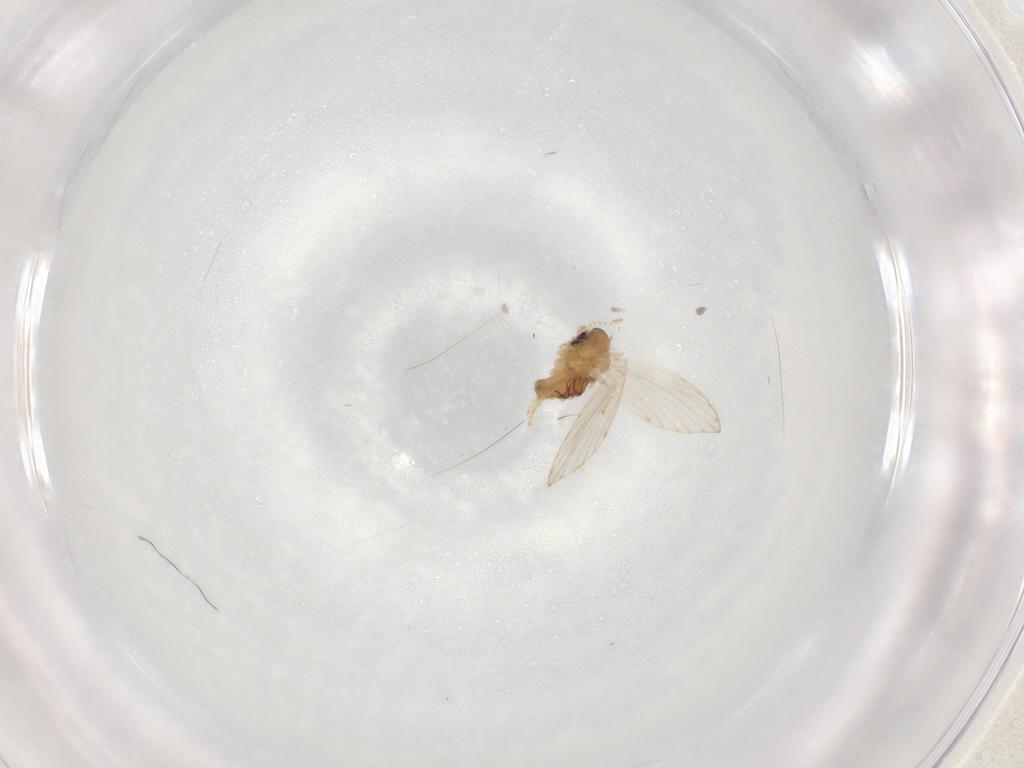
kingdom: Animalia
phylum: Arthropoda
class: Insecta
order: Diptera
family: Psychodidae
